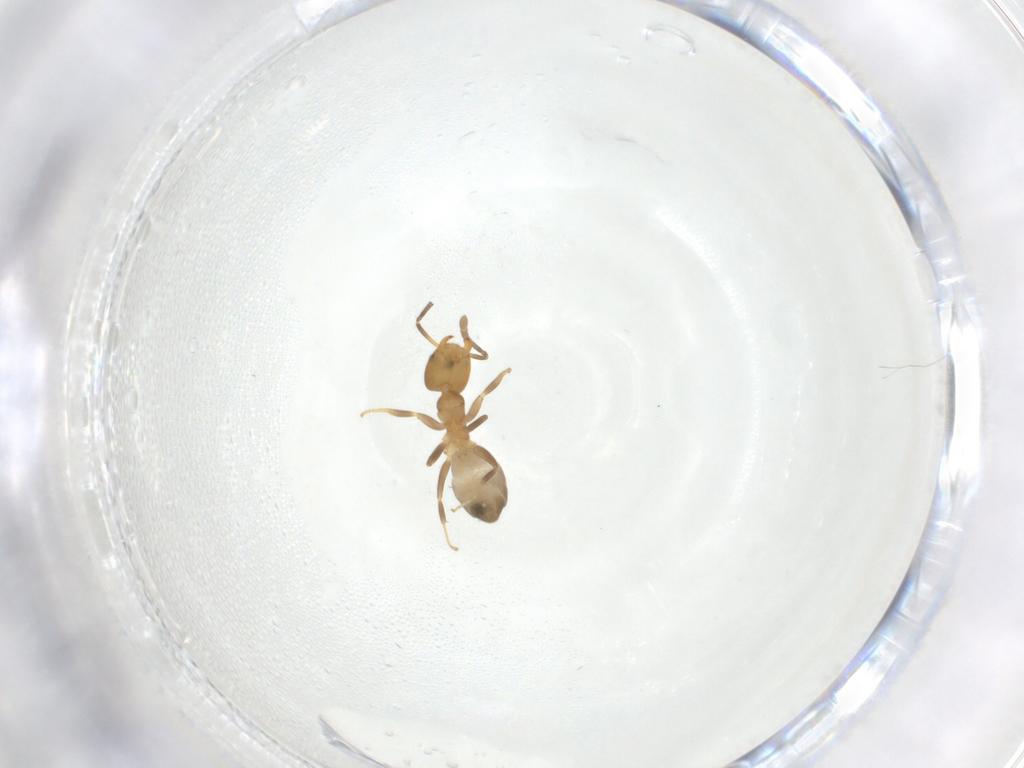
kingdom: Animalia
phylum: Arthropoda
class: Insecta
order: Hymenoptera
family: Formicidae
